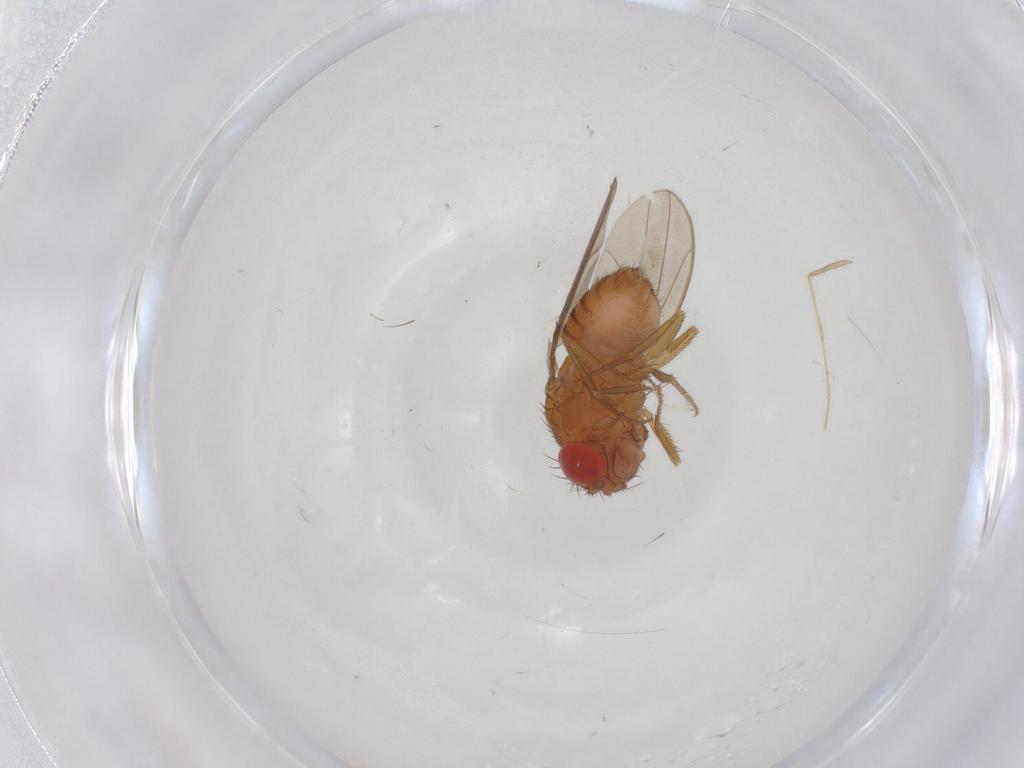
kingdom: Animalia
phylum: Arthropoda
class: Insecta
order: Diptera
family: Drosophilidae
